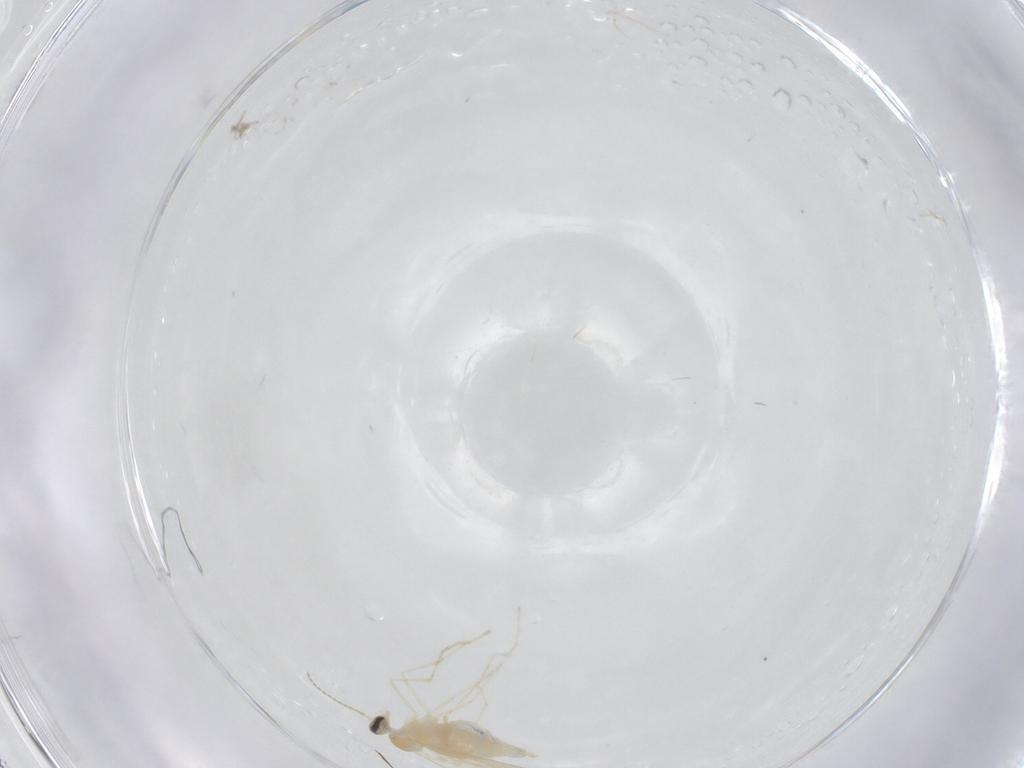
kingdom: Animalia
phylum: Arthropoda
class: Insecta
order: Diptera
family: Cecidomyiidae
